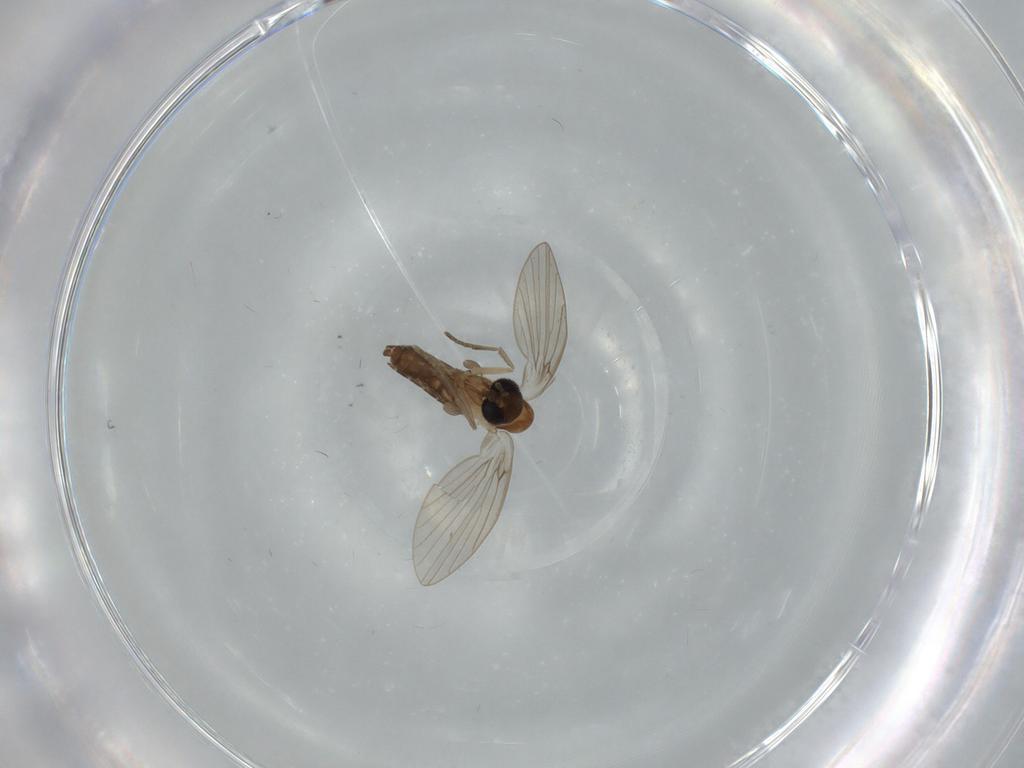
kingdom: Animalia
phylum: Arthropoda
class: Insecta
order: Diptera
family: Psychodidae
